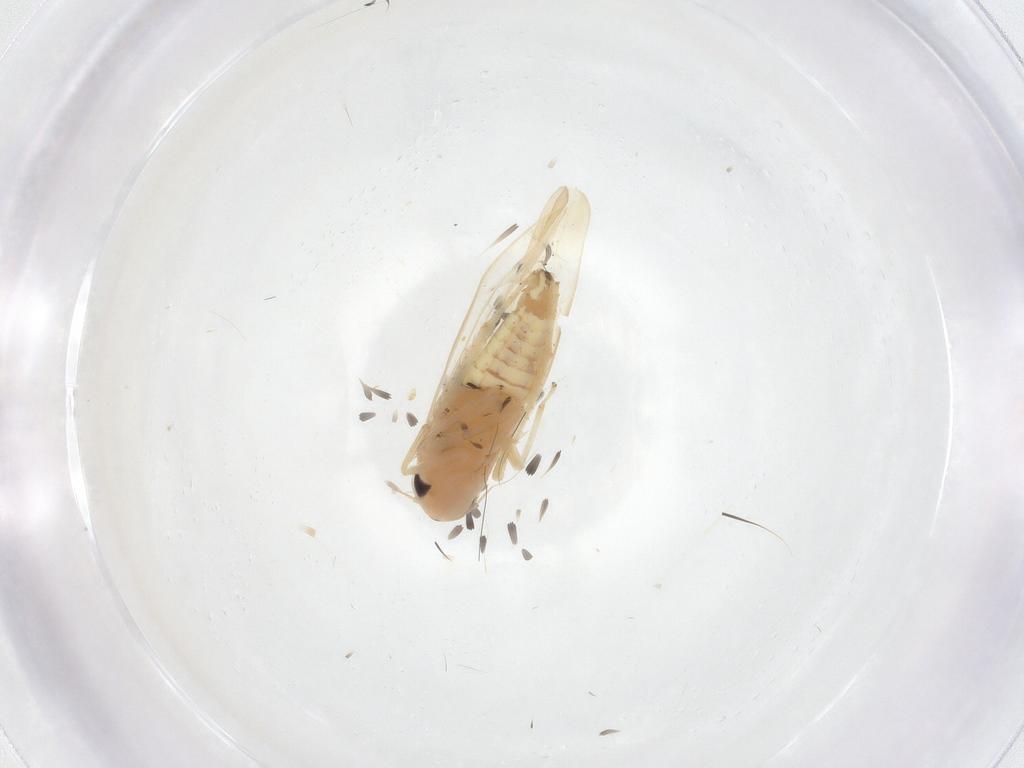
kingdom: Animalia
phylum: Arthropoda
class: Insecta
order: Hemiptera
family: Cicadellidae
